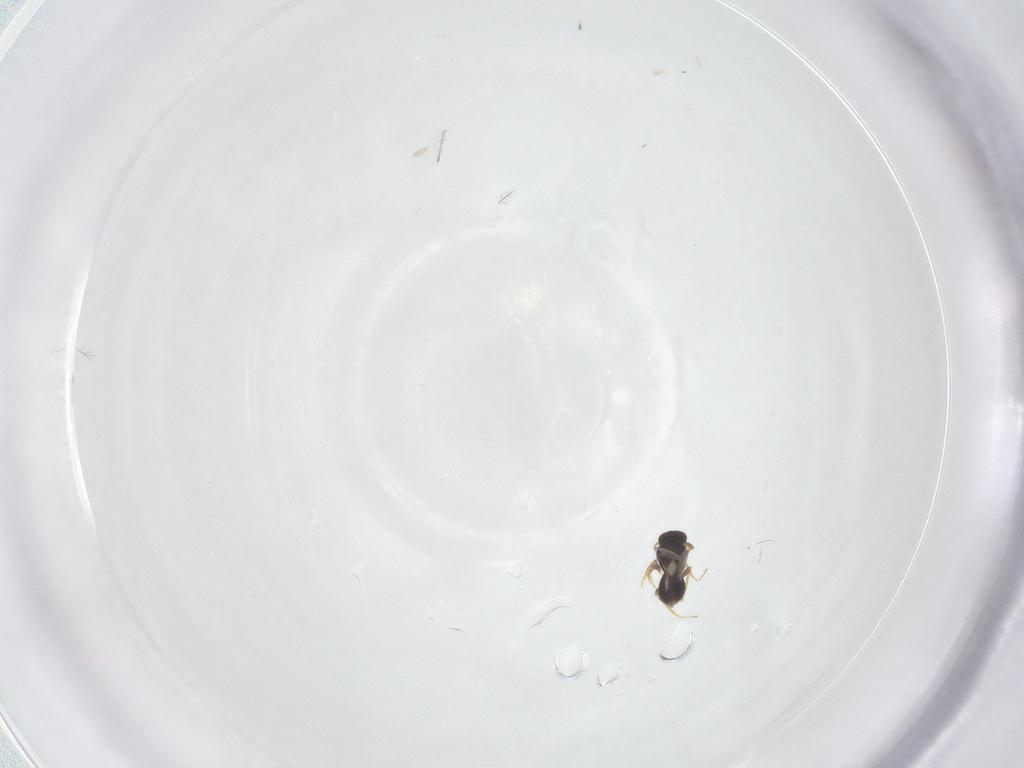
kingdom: Animalia
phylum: Arthropoda
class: Insecta
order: Hymenoptera
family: Platygastridae
